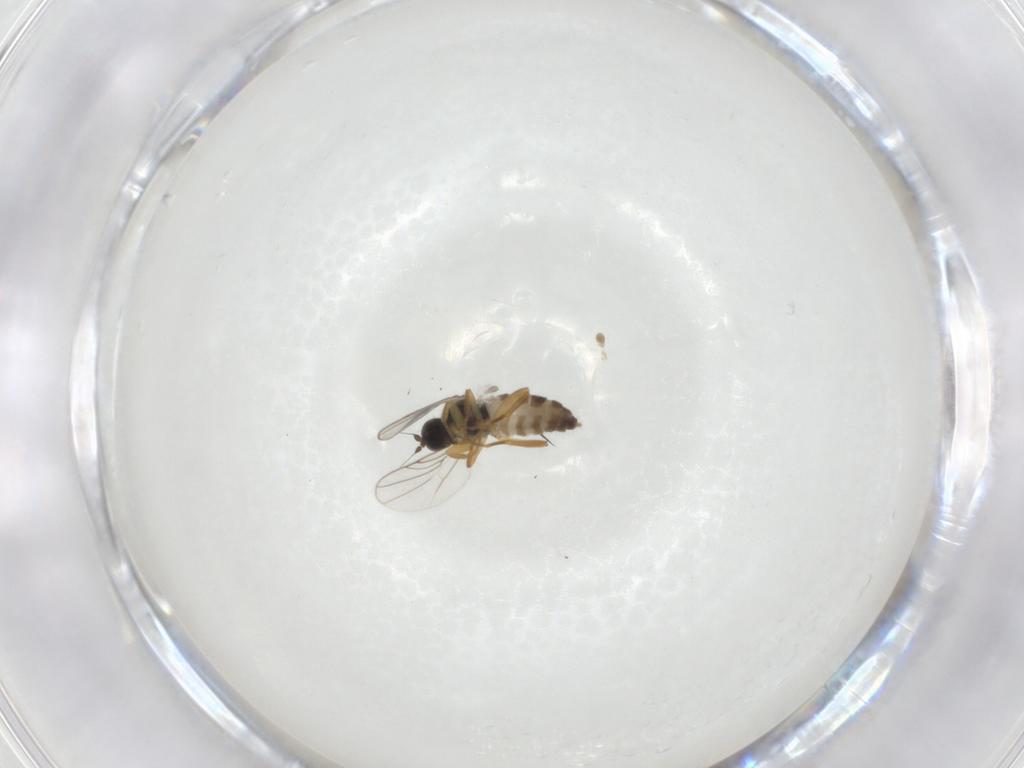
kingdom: Animalia
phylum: Arthropoda
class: Insecta
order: Diptera
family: Hybotidae
